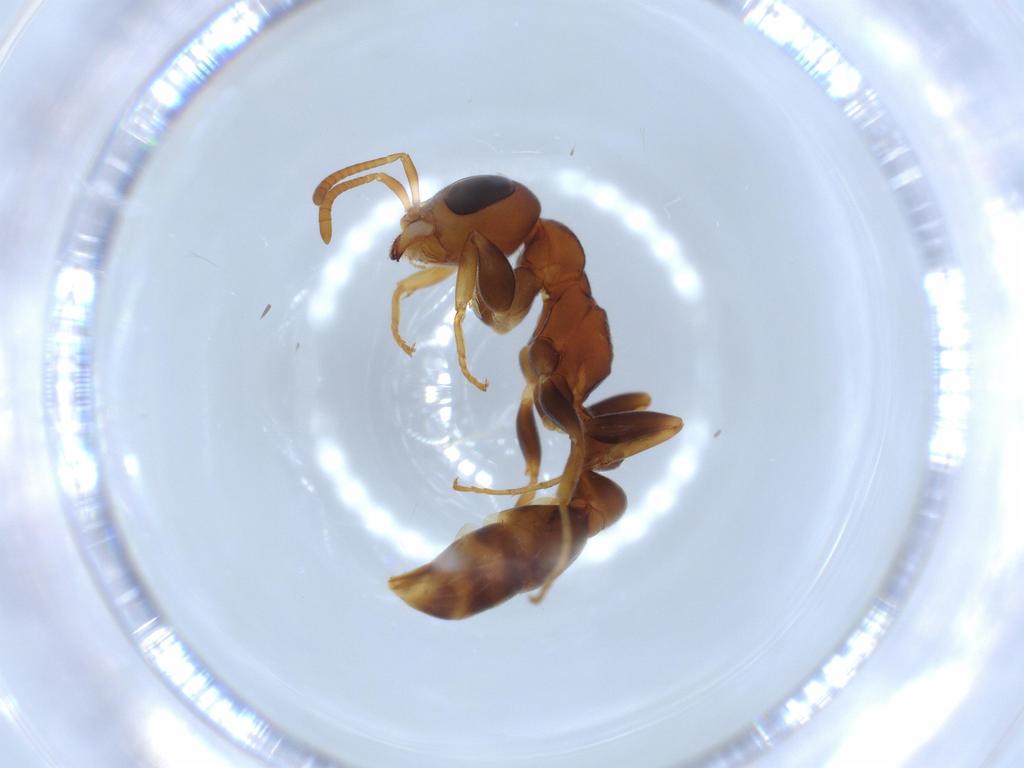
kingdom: Animalia
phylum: Arthropoda
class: Insecta
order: Hymenoptera
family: Formicidae
